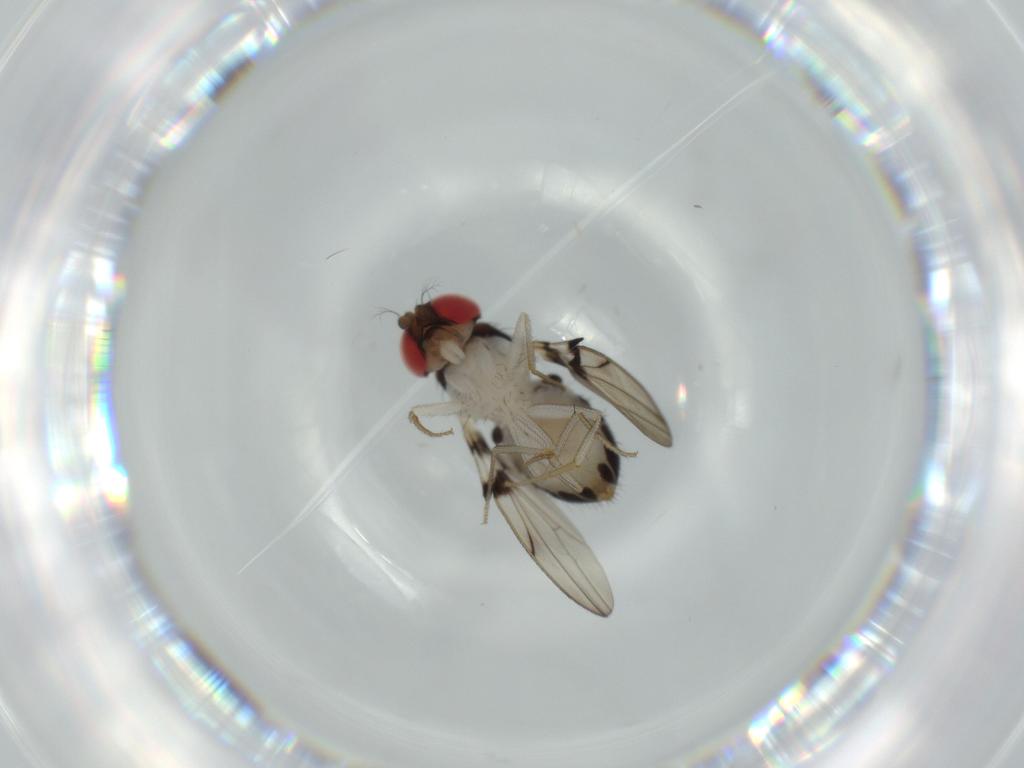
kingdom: Animalia
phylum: Arthropoda
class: Insecta
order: Diptera
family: Drosophilidae
